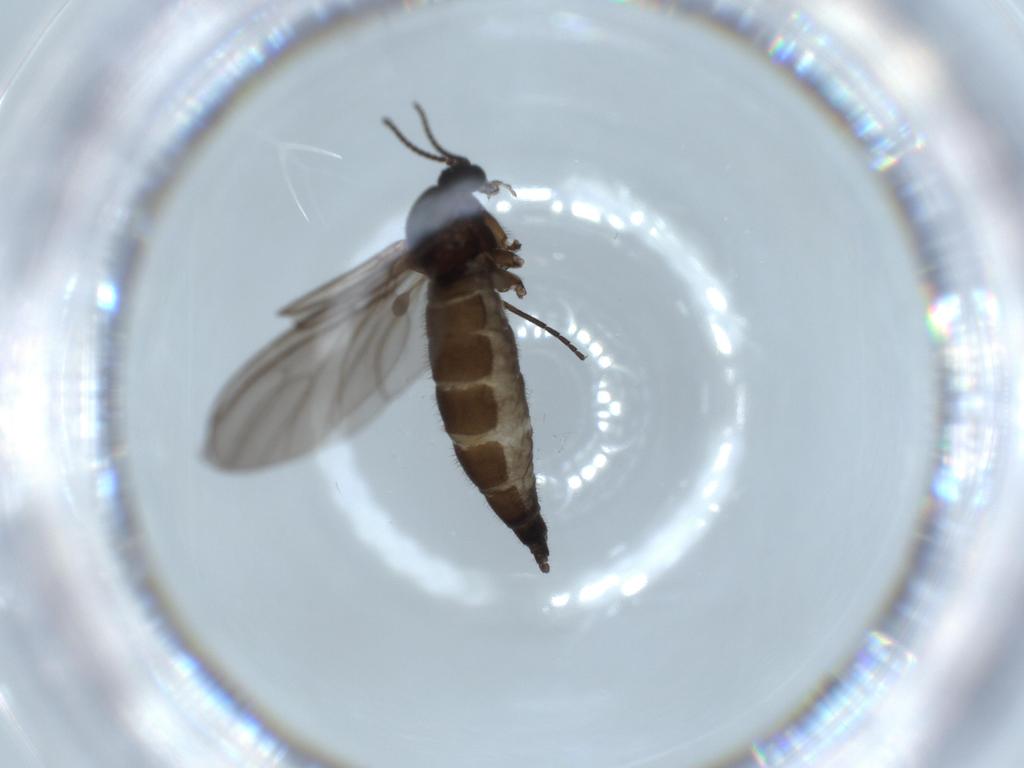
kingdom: Animalia
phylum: Arthropoda
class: Insecta
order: Diptera
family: Sciaridae
